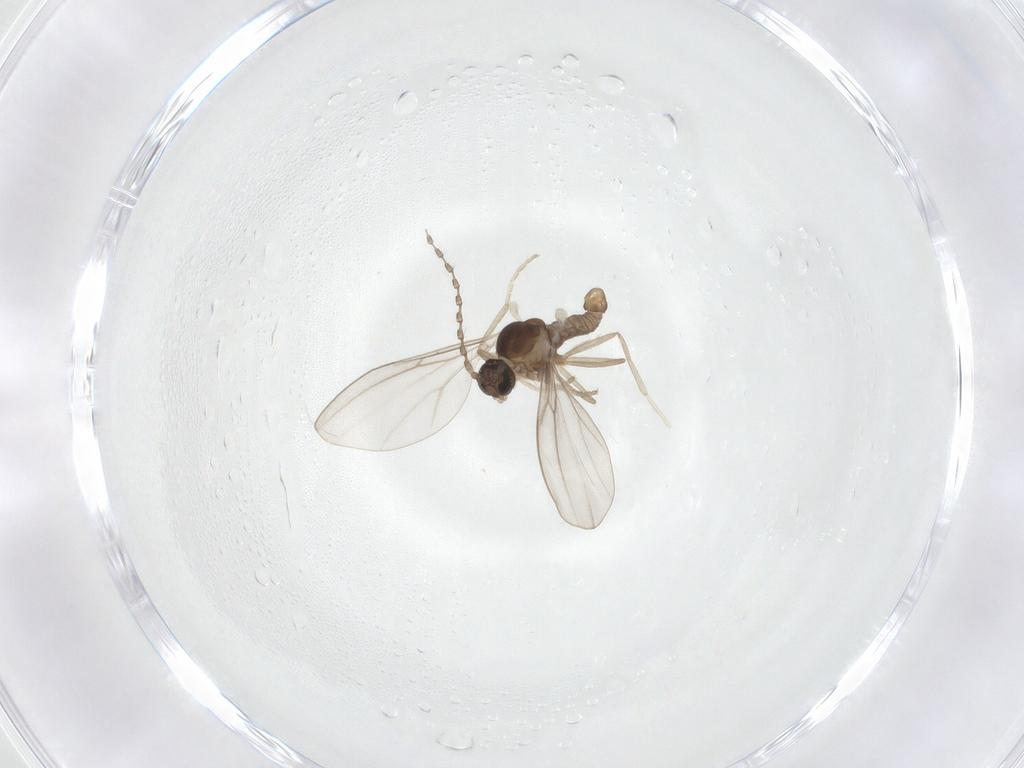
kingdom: Animalia
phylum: Arthropoda
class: Insecta
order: Diptera
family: Cecidomyiidae
